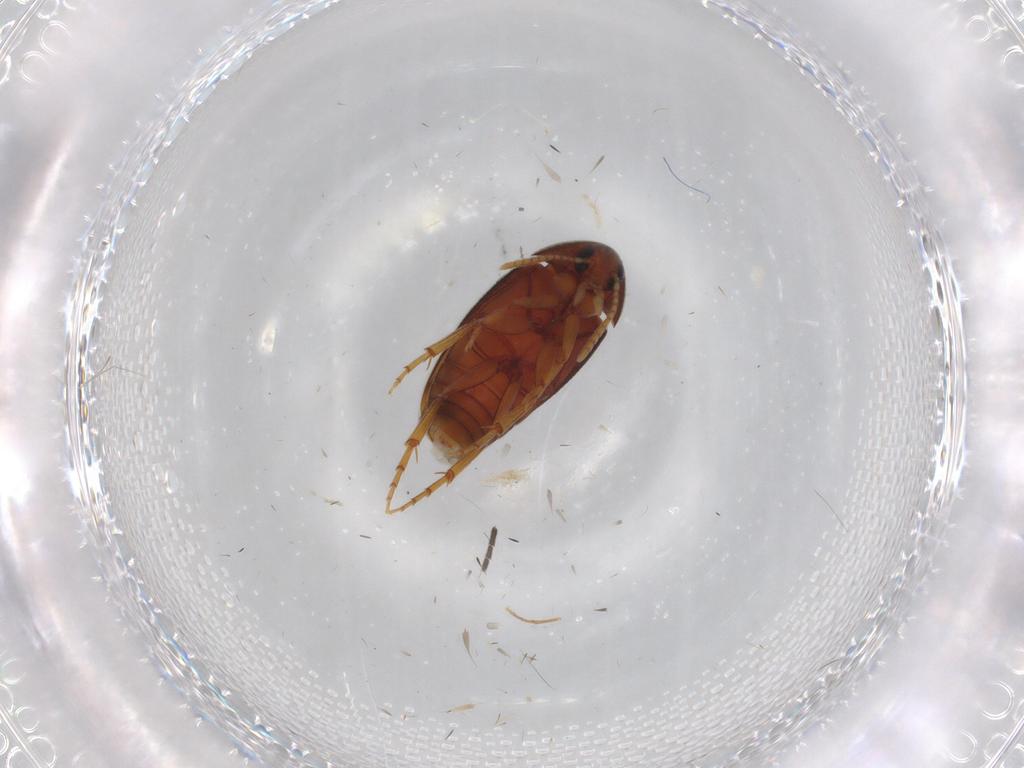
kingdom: Animalia
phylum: Arthropoda
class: Insecta
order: Coleoptera
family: Scraptiidae
